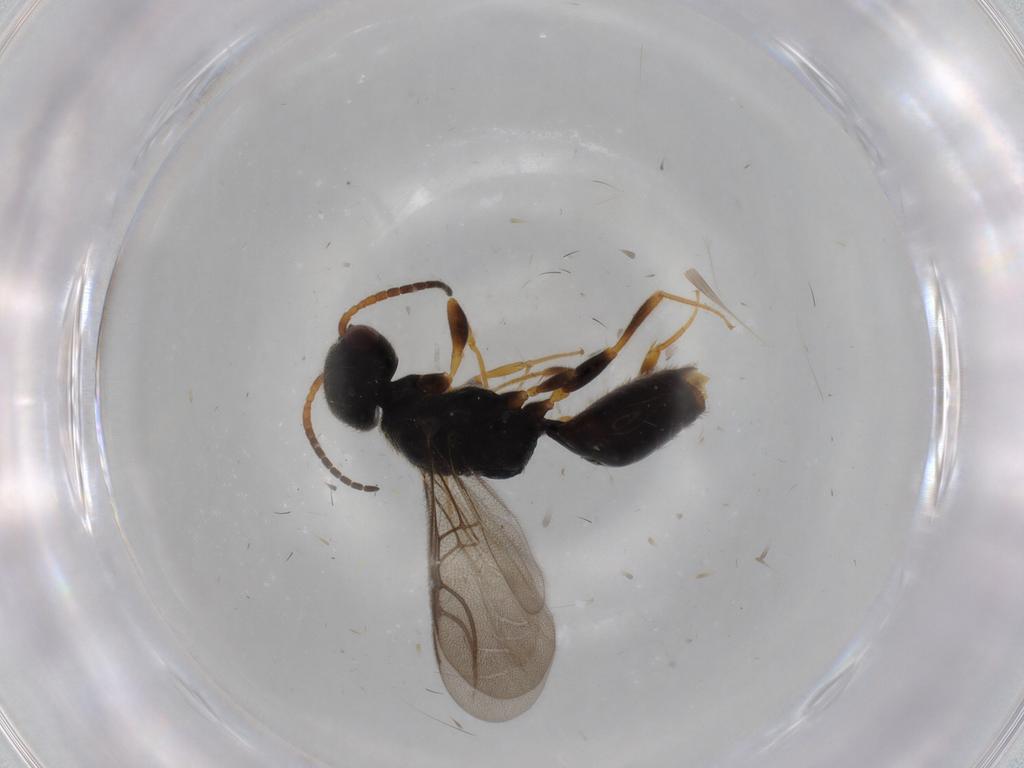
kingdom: Animalia
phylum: Arthropoda
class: Insecta
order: Hymenoptera
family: Bethylidae
